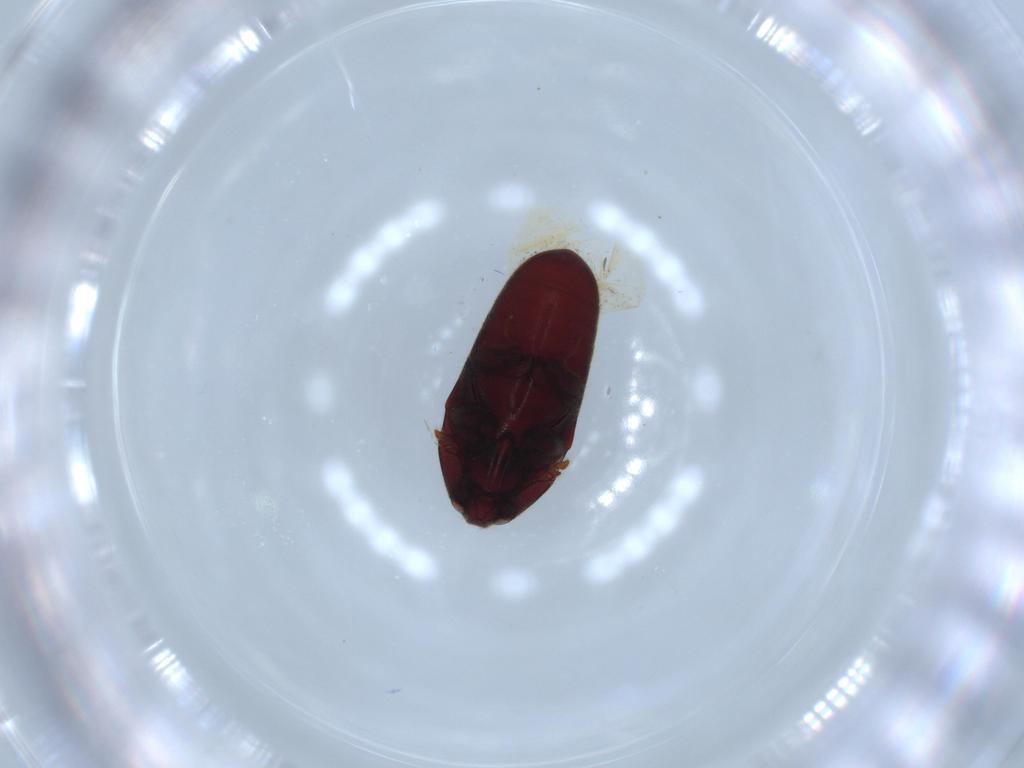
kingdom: Animalia
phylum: Arthropoda
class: Insecta
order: Coleoptera
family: Throscidae
